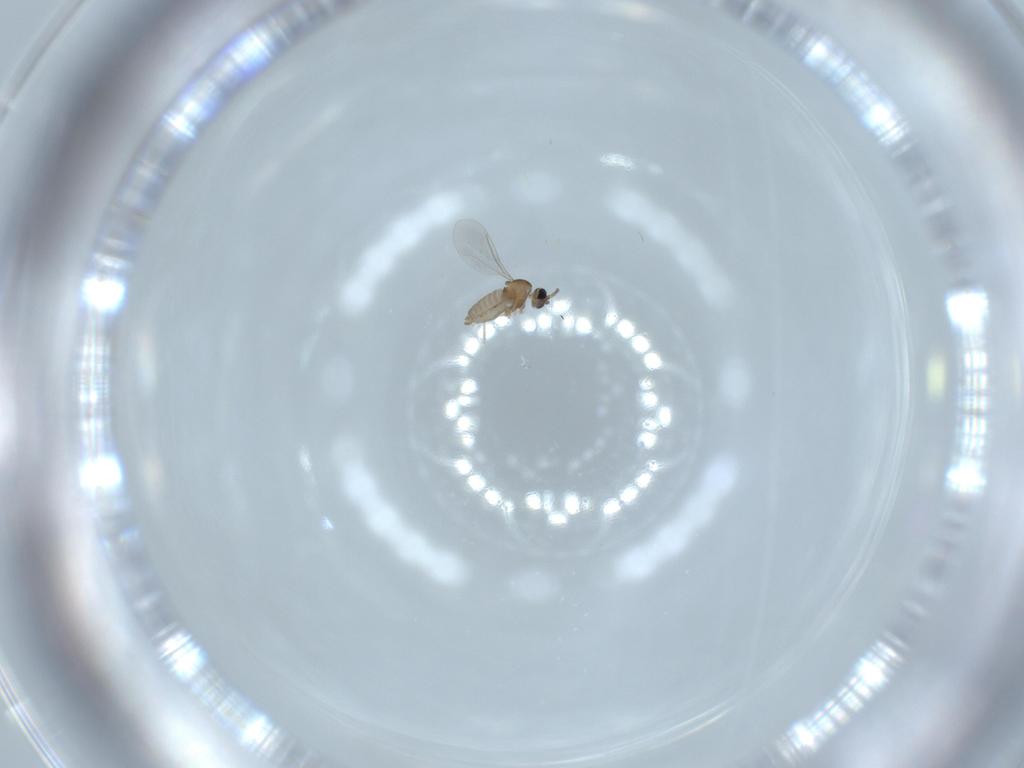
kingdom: Animalia
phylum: Arthropoda
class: Insecta
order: Diptera
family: Cecidomyiidae
